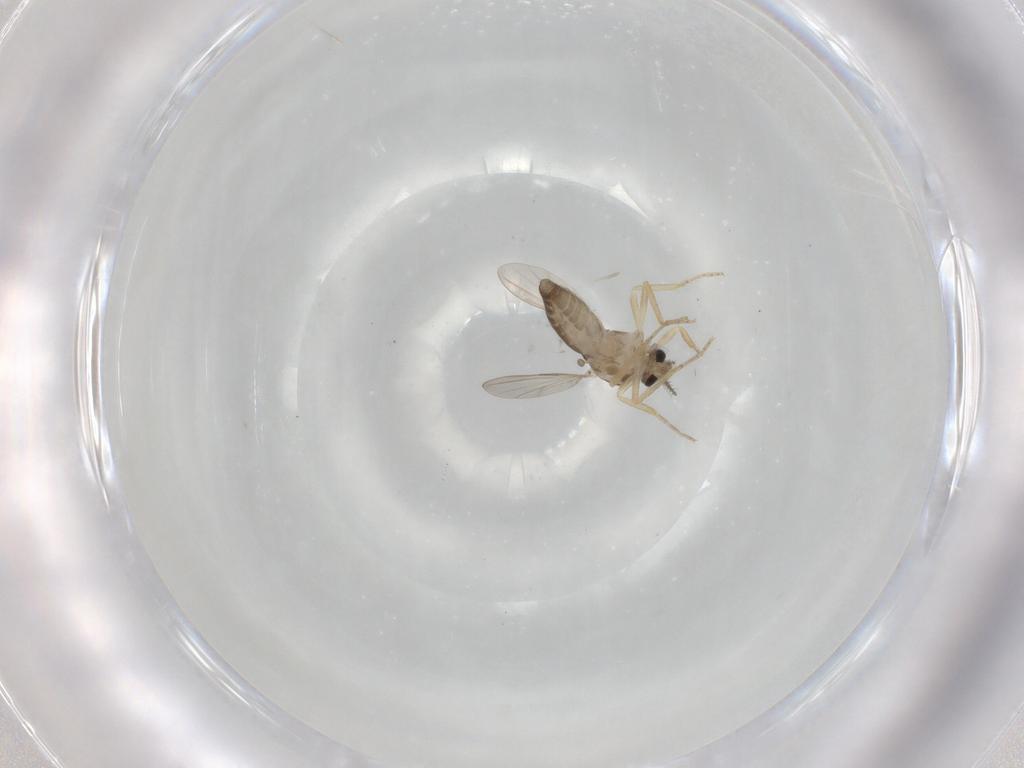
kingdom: Animalia
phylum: Arthropoda
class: Insecta
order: Diptera
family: Ceratopogonidae
